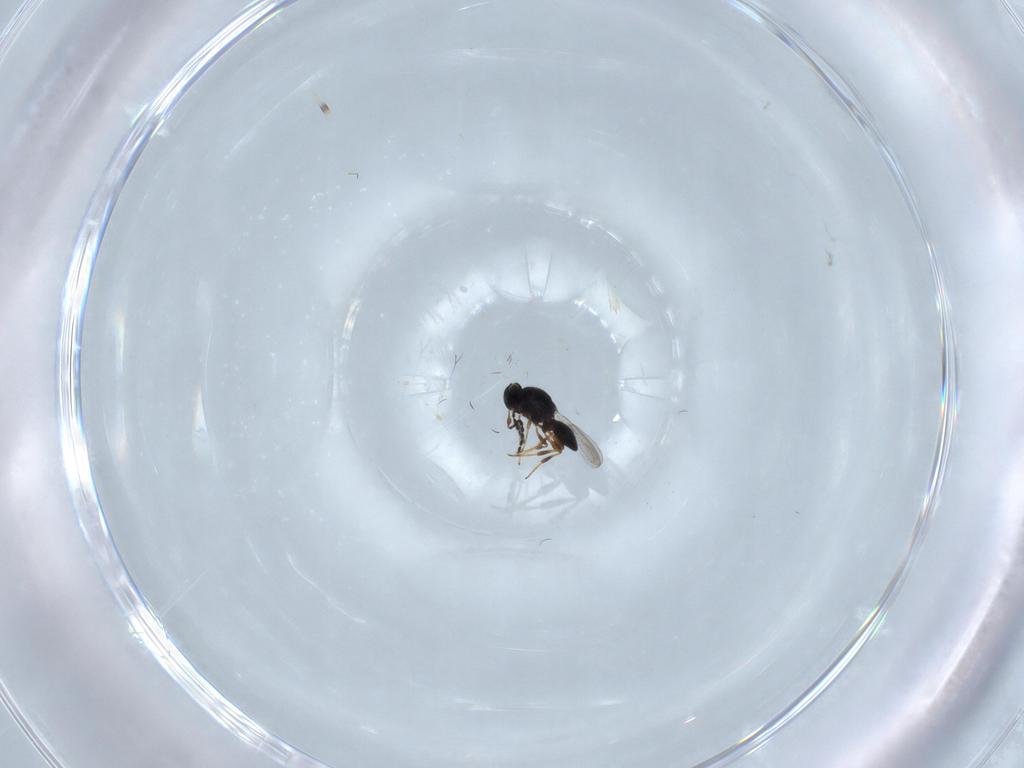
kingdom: Animalia
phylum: Arthropoda
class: Insecta
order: Hymenoptera
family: Platygastridae
